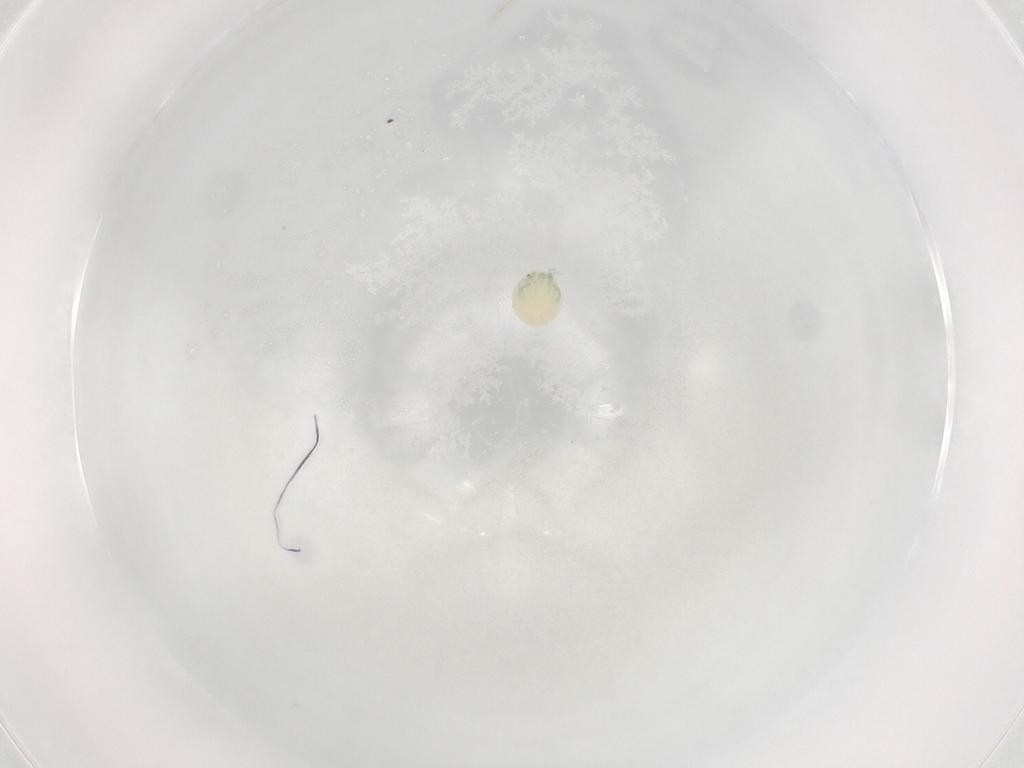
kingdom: Animalia
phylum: Arthropoda
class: Arachnida
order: Trombidiformes
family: Arrenuridae
